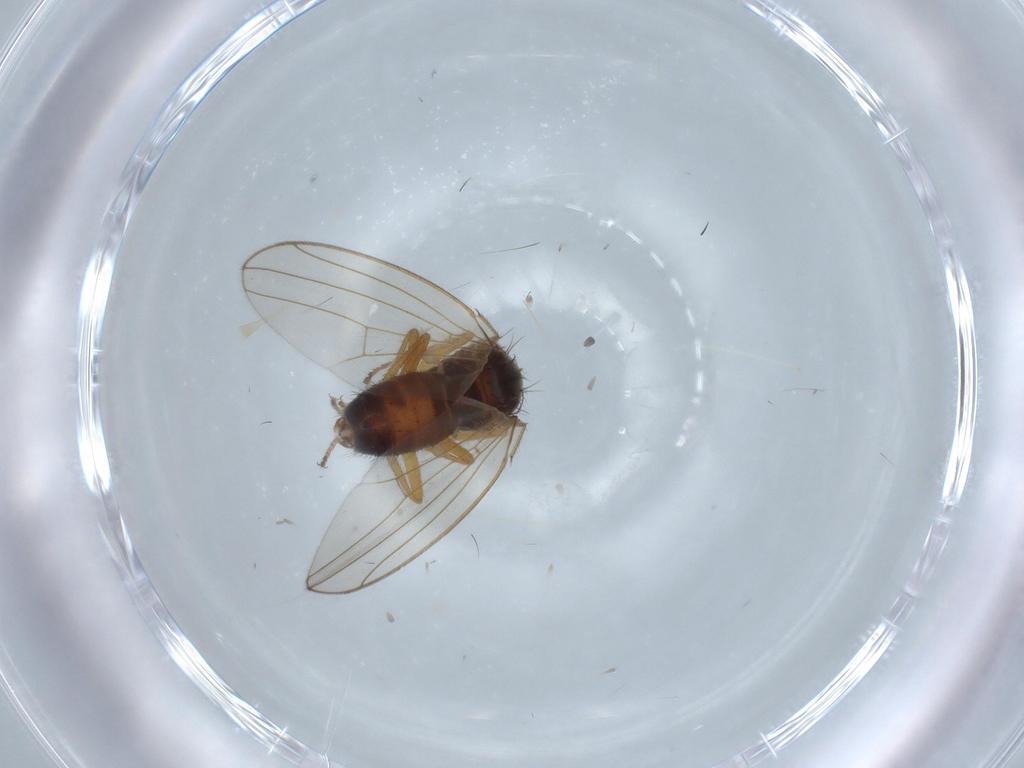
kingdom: Animalia
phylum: Arthropoda
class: Insecta
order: Diptera
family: Drosophilidae
